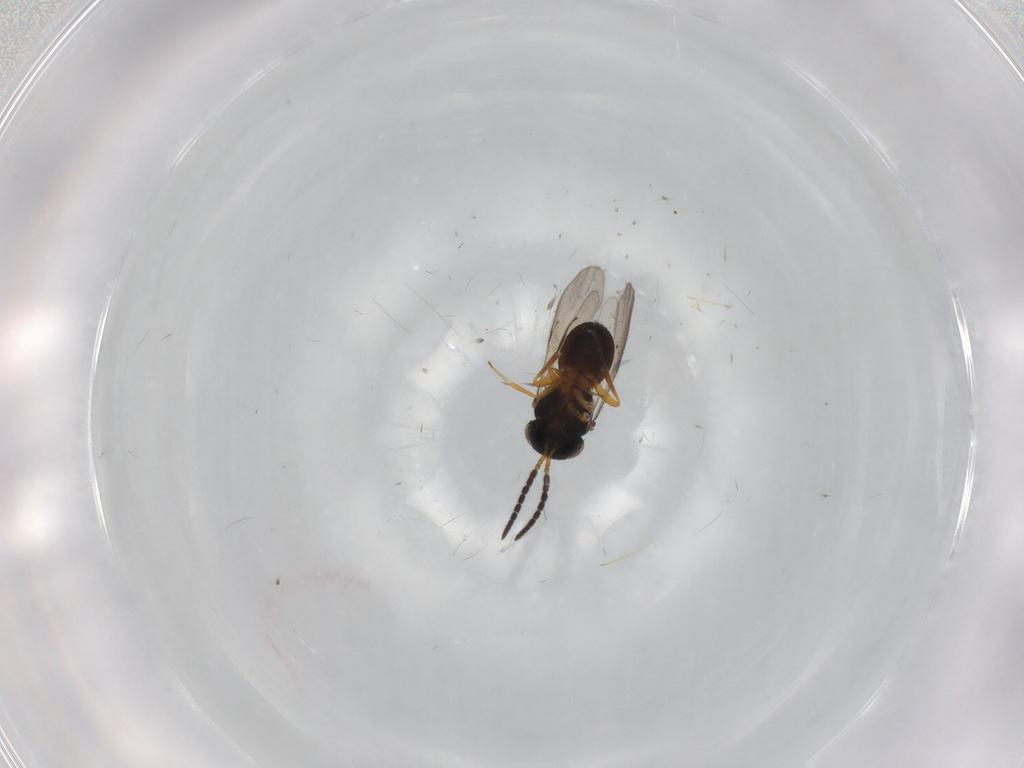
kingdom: Animalia
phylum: Arthropoda
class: Insecta
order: Coleoptera
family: Curculionidae
